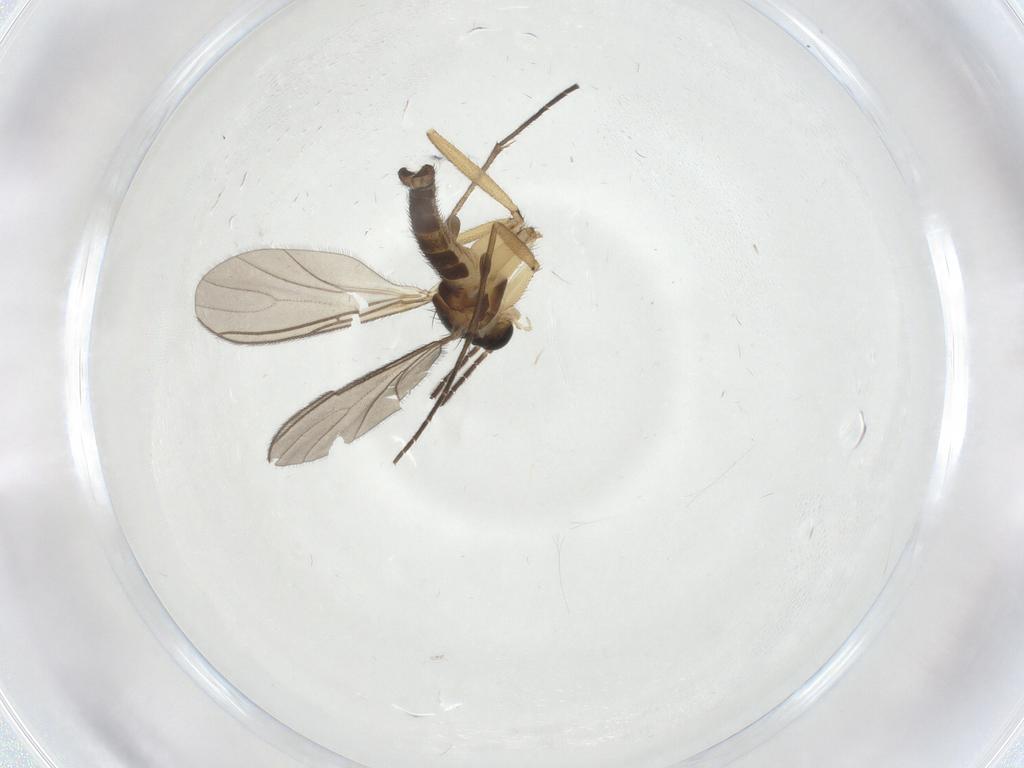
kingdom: Animalia
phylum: Arthropoda
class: Insecta
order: Diptera
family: Sciaridae
